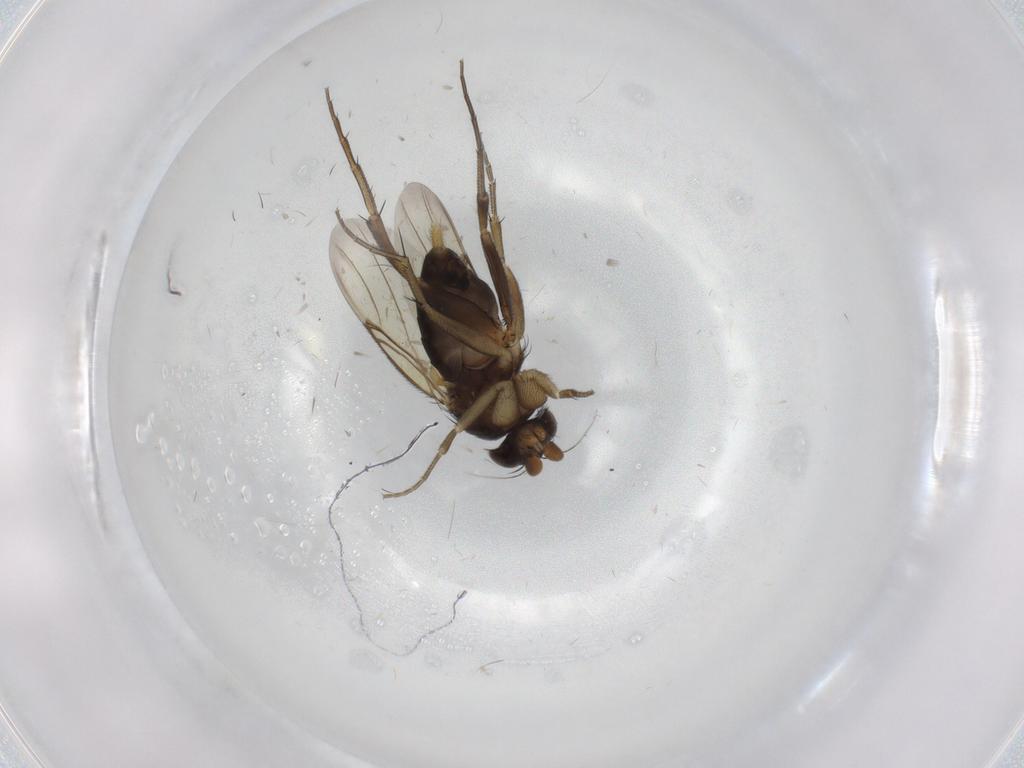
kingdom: Animalia
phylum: Arthropoda
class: Insecta
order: Diptera
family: Phoridae
